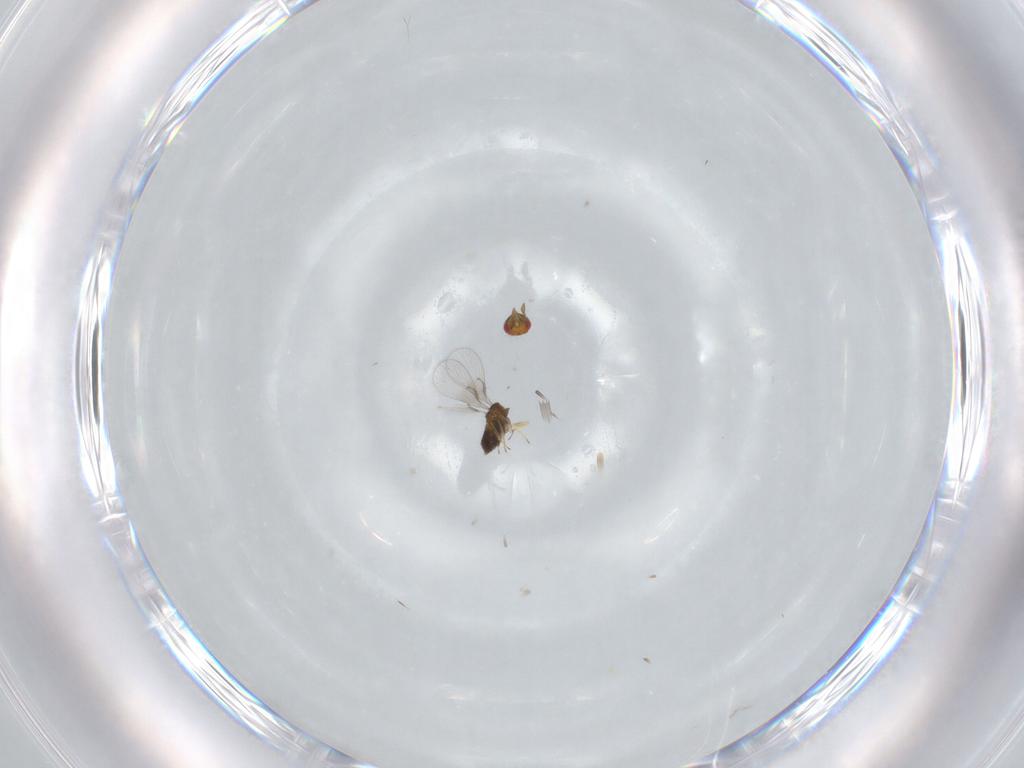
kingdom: Animalia
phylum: Arthropoda
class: Insecta
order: Hymenoptera
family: Trichogrammatidae
